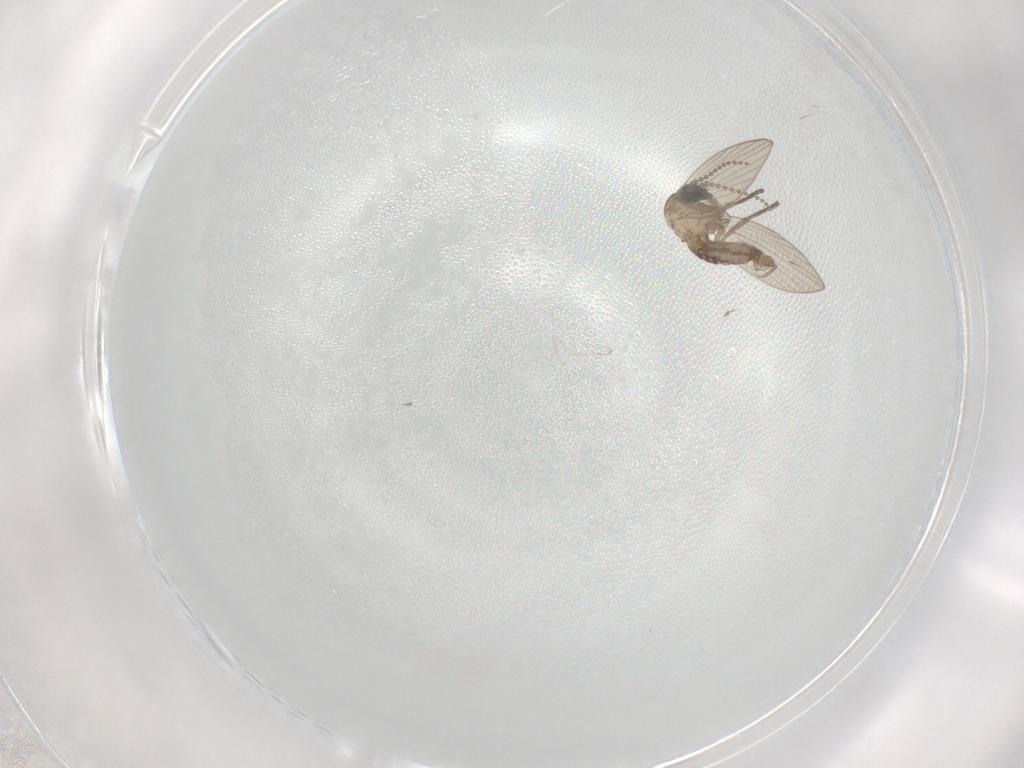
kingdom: Animalia
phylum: Arthropoda
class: Insecta
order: Diptera
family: Psychodidae
